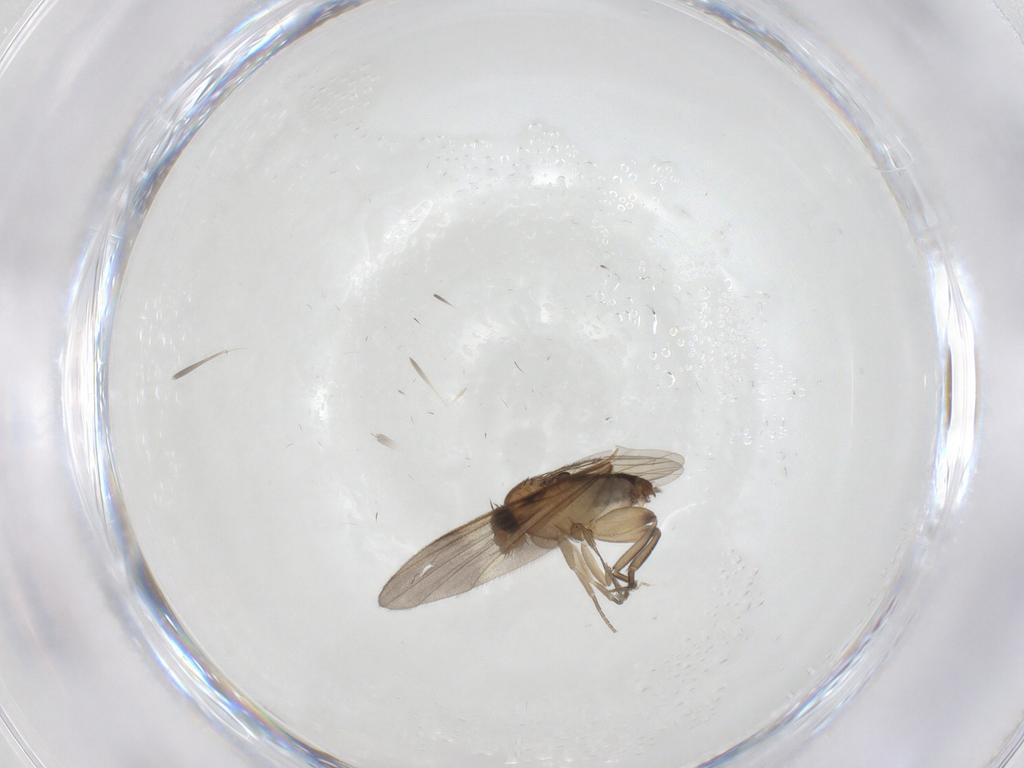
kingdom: Animalia
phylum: Arthropoda
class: Insecta
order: Diptera
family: Phoridae
